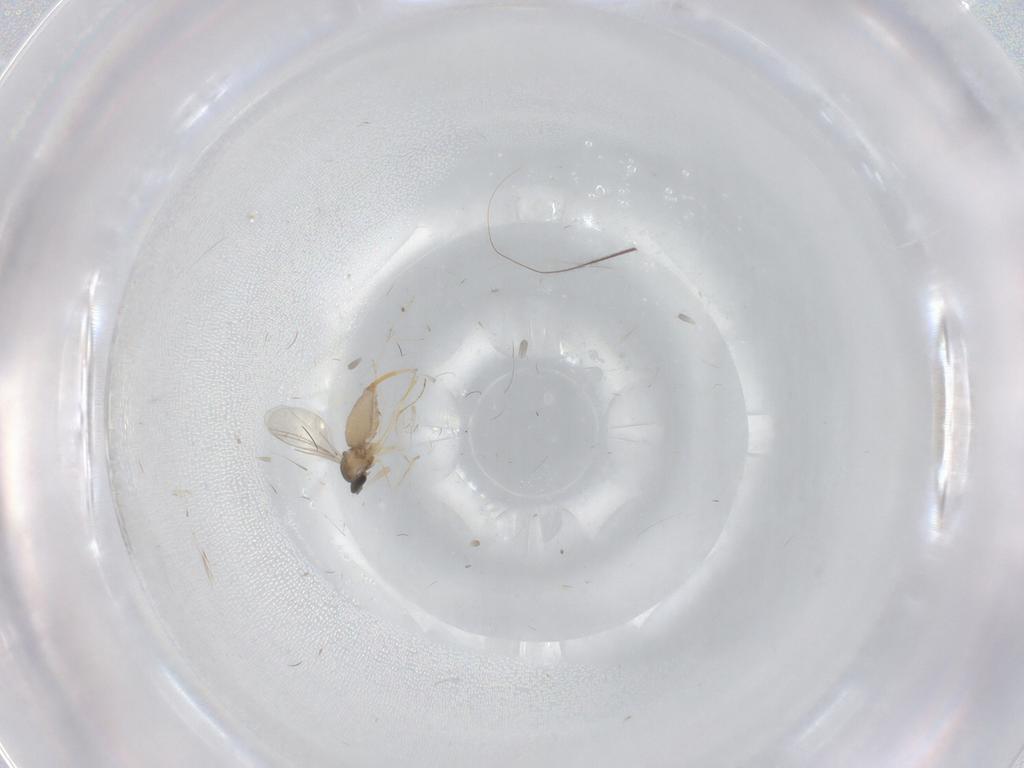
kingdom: Animalia
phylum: Arthropoda
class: Insecta
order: Diptera
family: Cecidomyiidae
